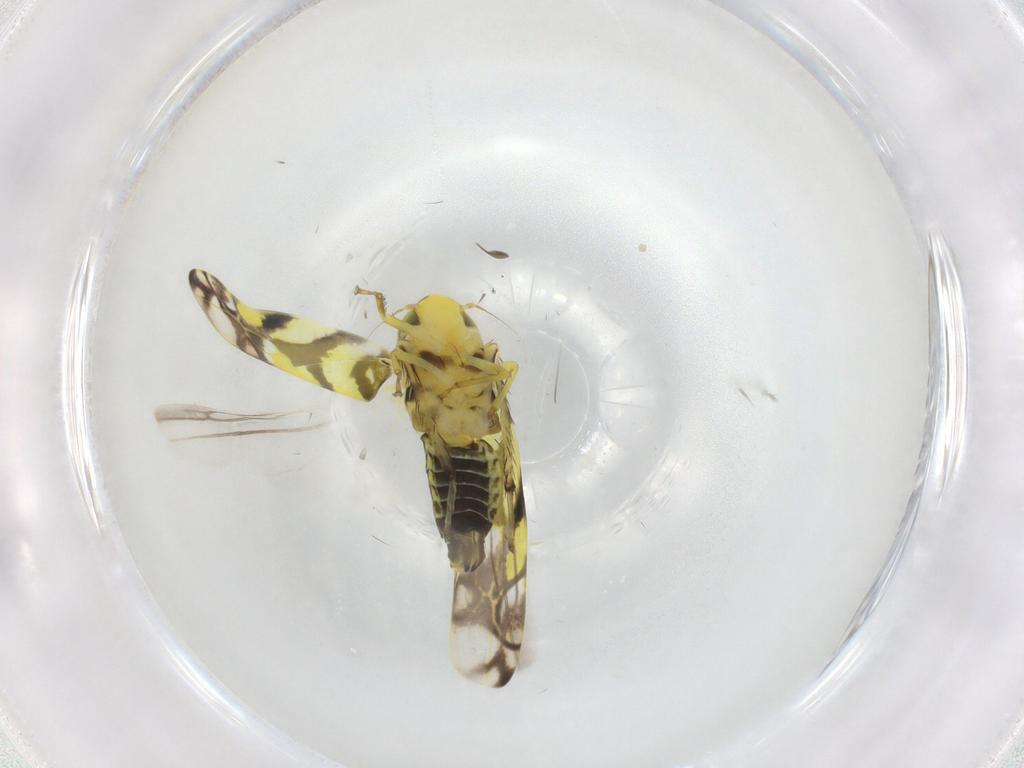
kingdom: Animalia
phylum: Arthropoda
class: Insecta
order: Hemiptera
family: Cicadellidae
